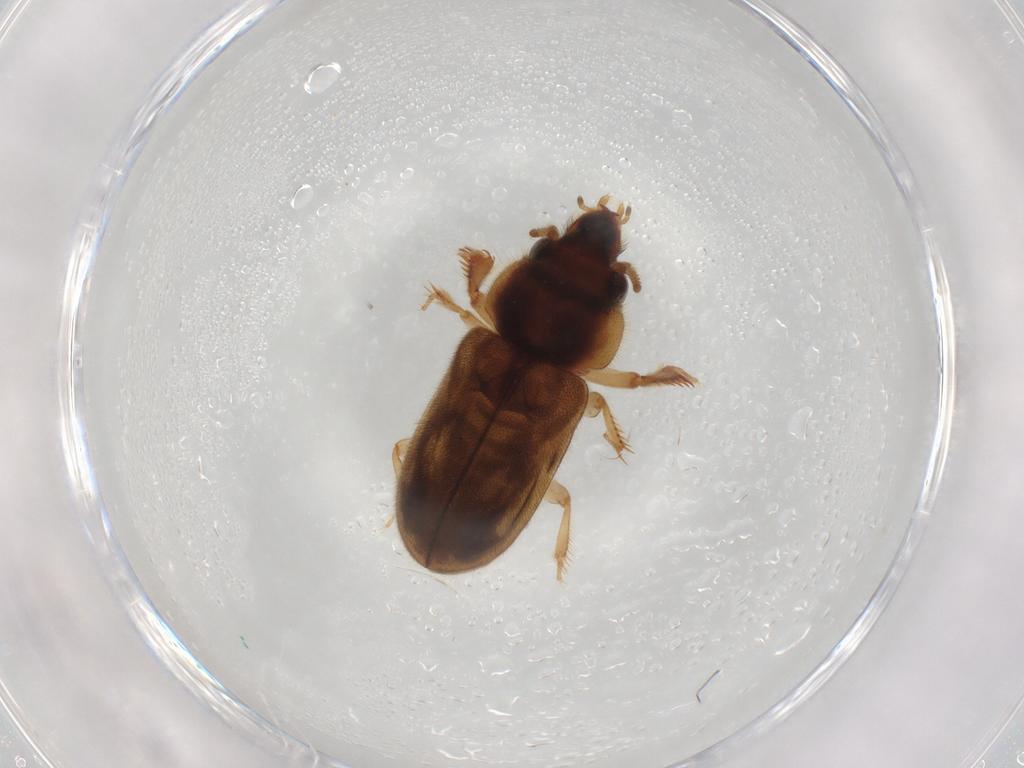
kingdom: Animalia
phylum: Arthropoda
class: Insecta
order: Coleoptera
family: Heteroceridae
